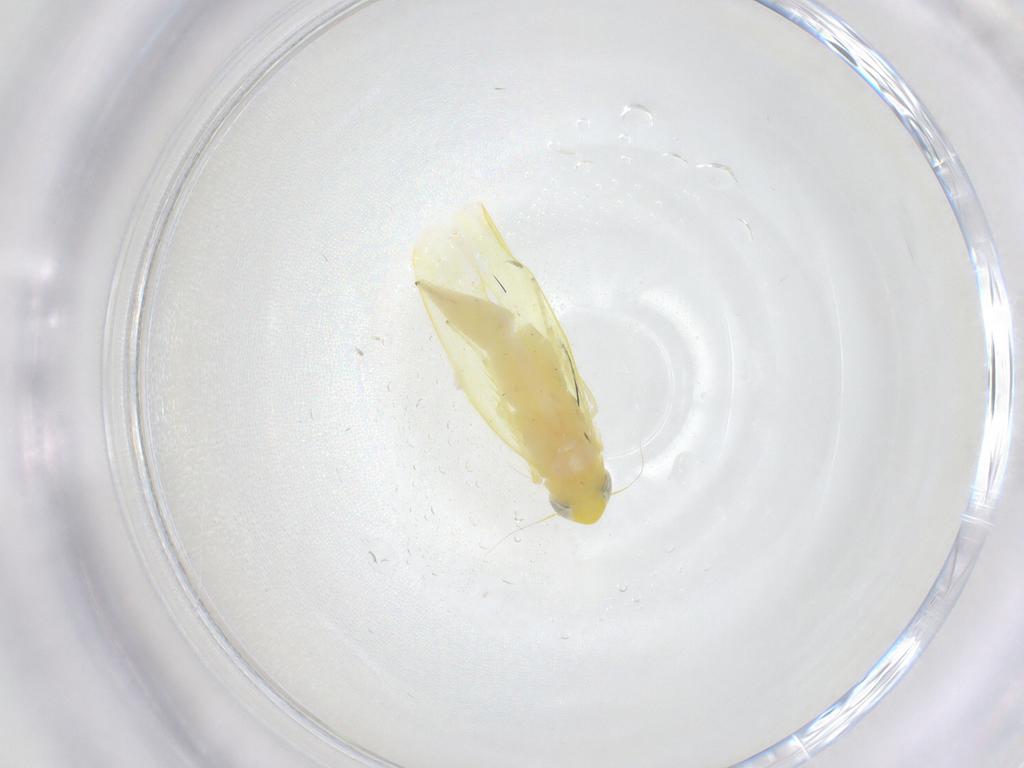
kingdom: Animalia
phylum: Arthropoda
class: Insecta
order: Hemiptera
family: Cicadellidae
